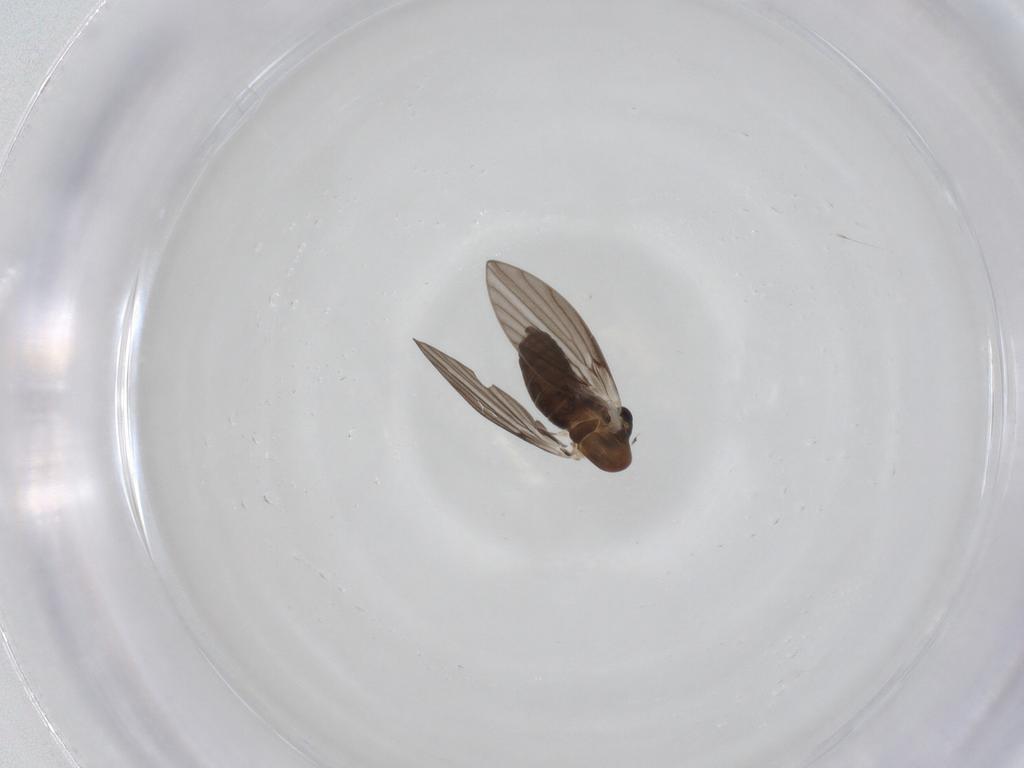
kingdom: Animalia
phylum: Arthropoda
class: Insecta
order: Diptera
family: Psychodidae
